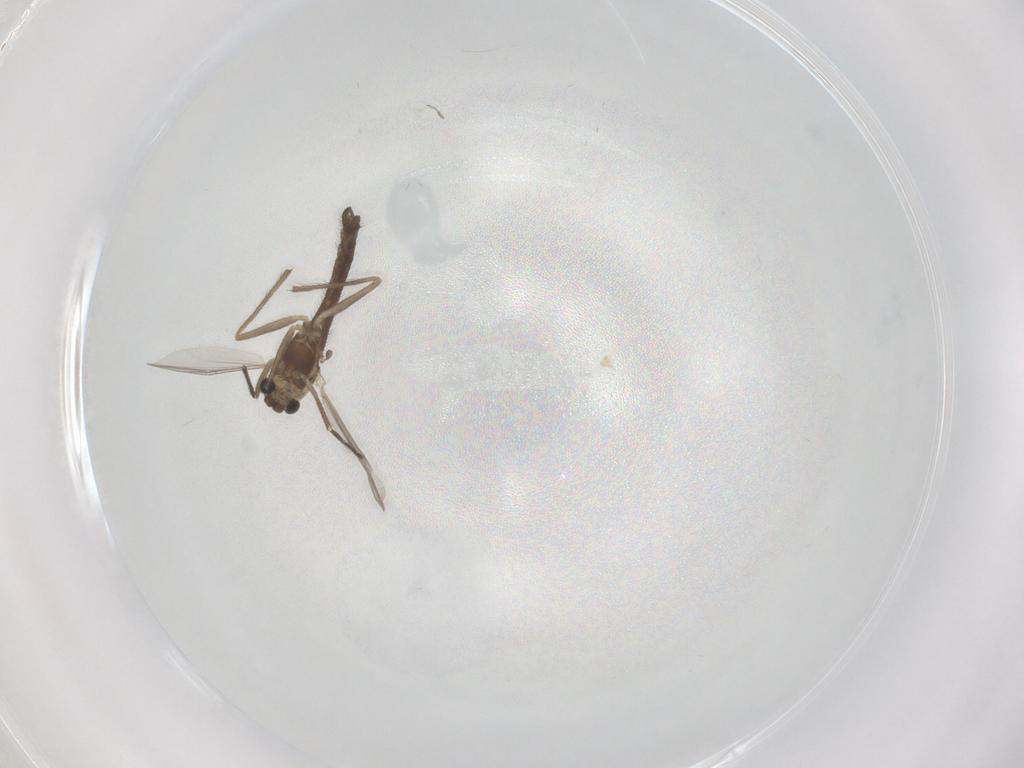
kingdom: Animalia
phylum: Arthropoda
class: Insecta
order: Diptera
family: Chironomidae
